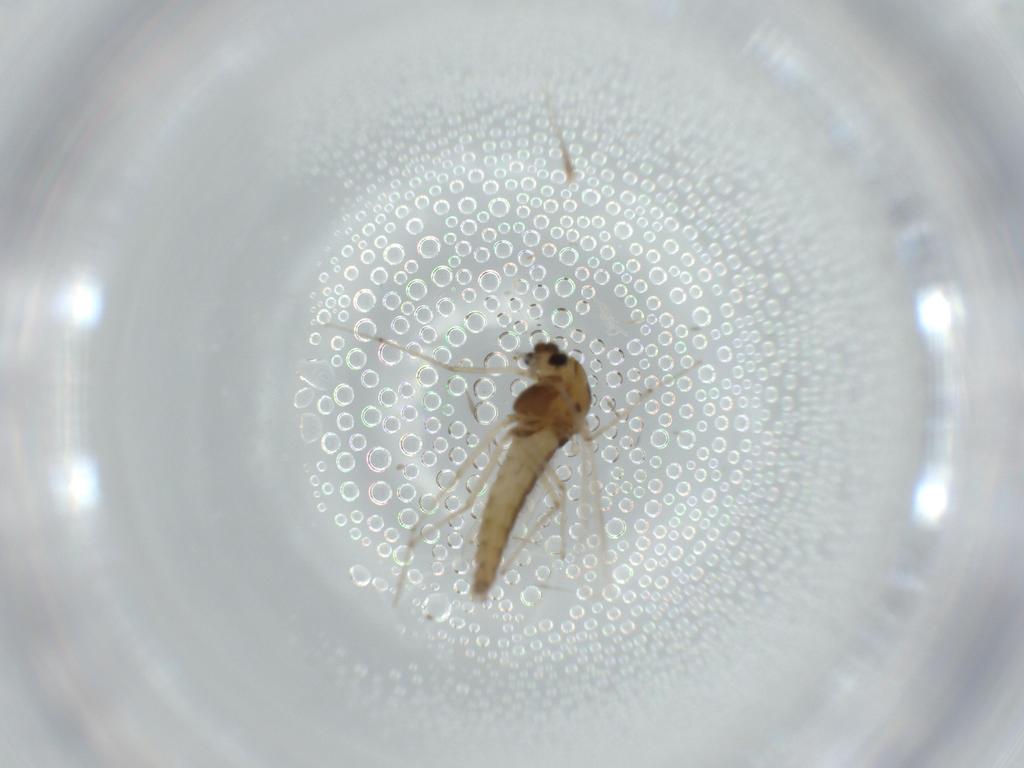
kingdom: Animalia
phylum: Arthropoda
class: Insecta
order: Diptera
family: Chironomidae
